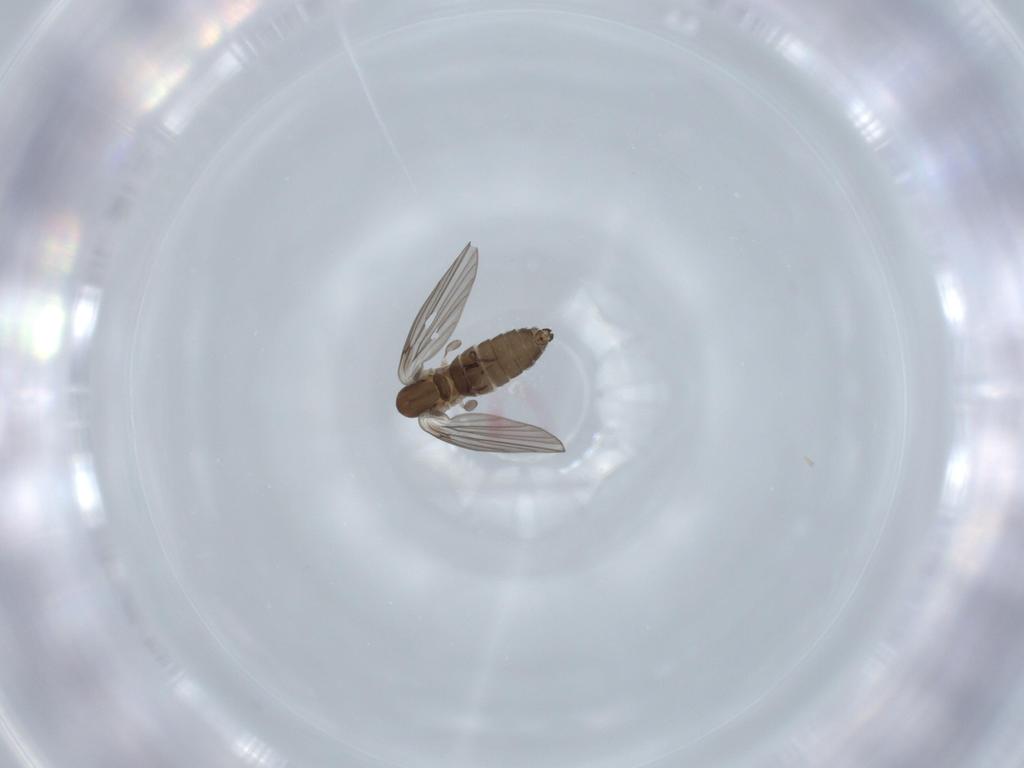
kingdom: Animalia
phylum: Arthropoda
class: Insecta
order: Diptera
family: Psychodidae
